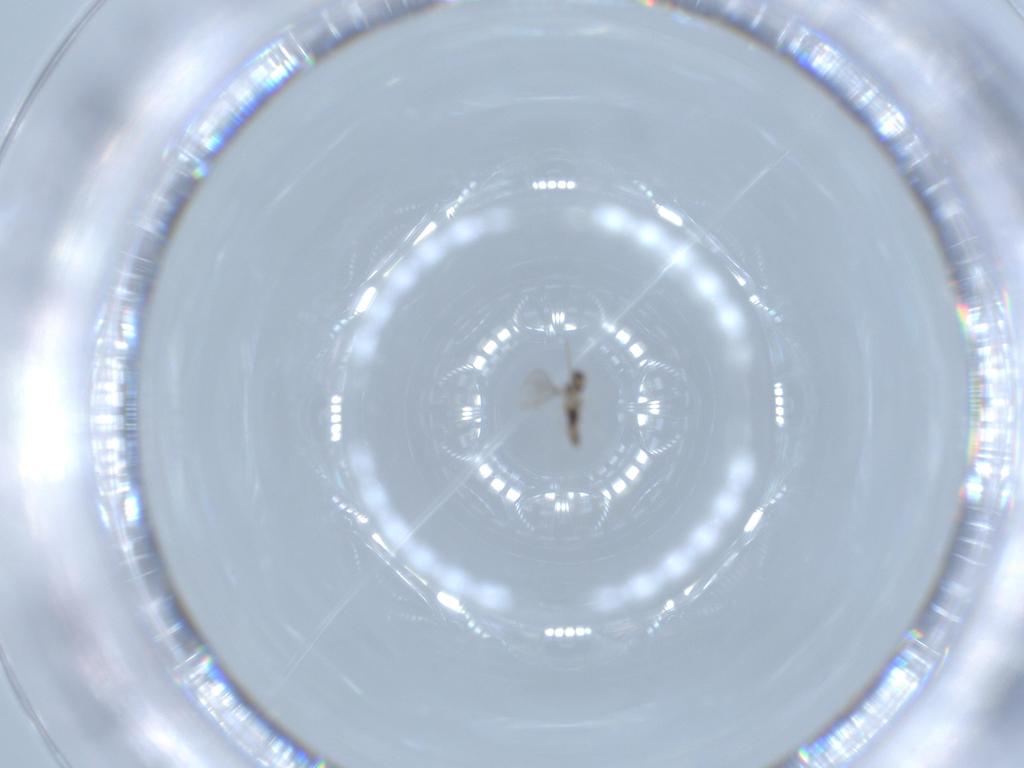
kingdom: Animalia
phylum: Arthropoda
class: Insecta
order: Diptera
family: Cecidomyiidae
